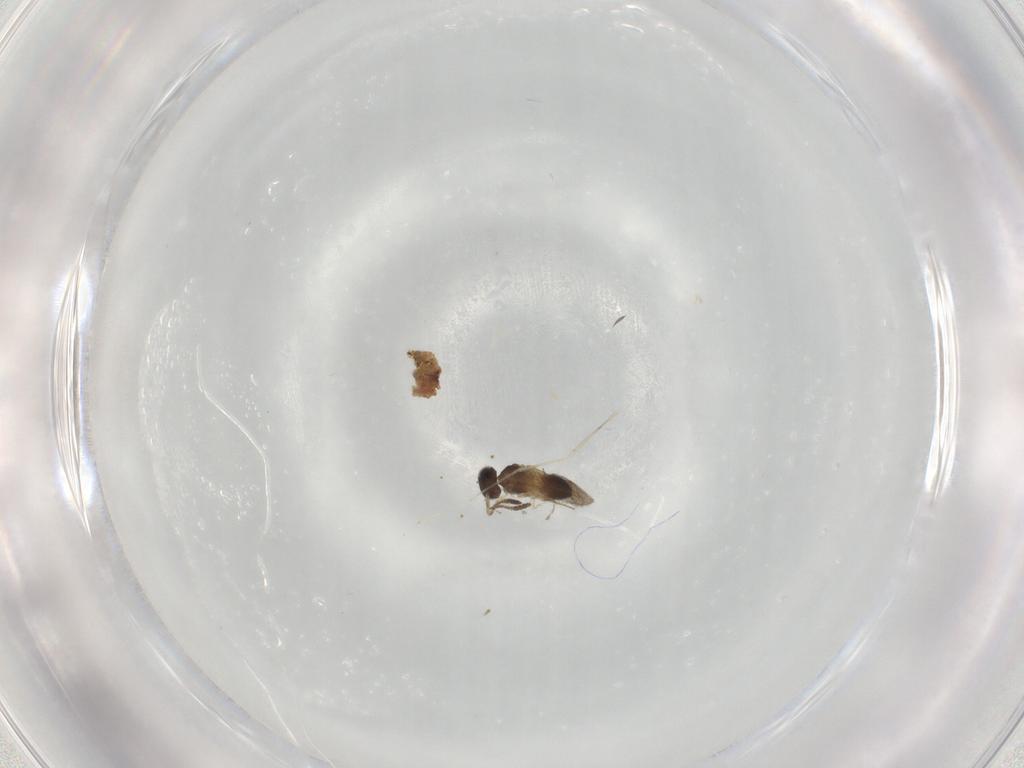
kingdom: Animalia
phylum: Arthropoda
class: Insecta
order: Hymenoptera
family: Scelionidae
